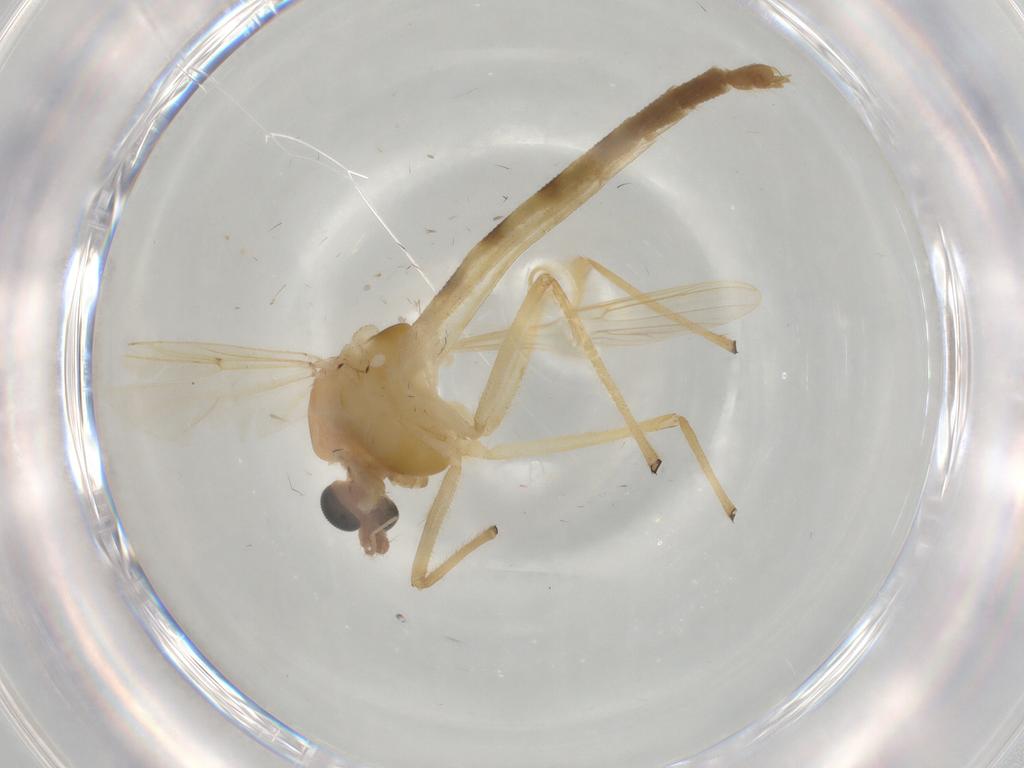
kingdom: Animalia
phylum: Arthropoda
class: Insecta
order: Diptera
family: Chironomidae
